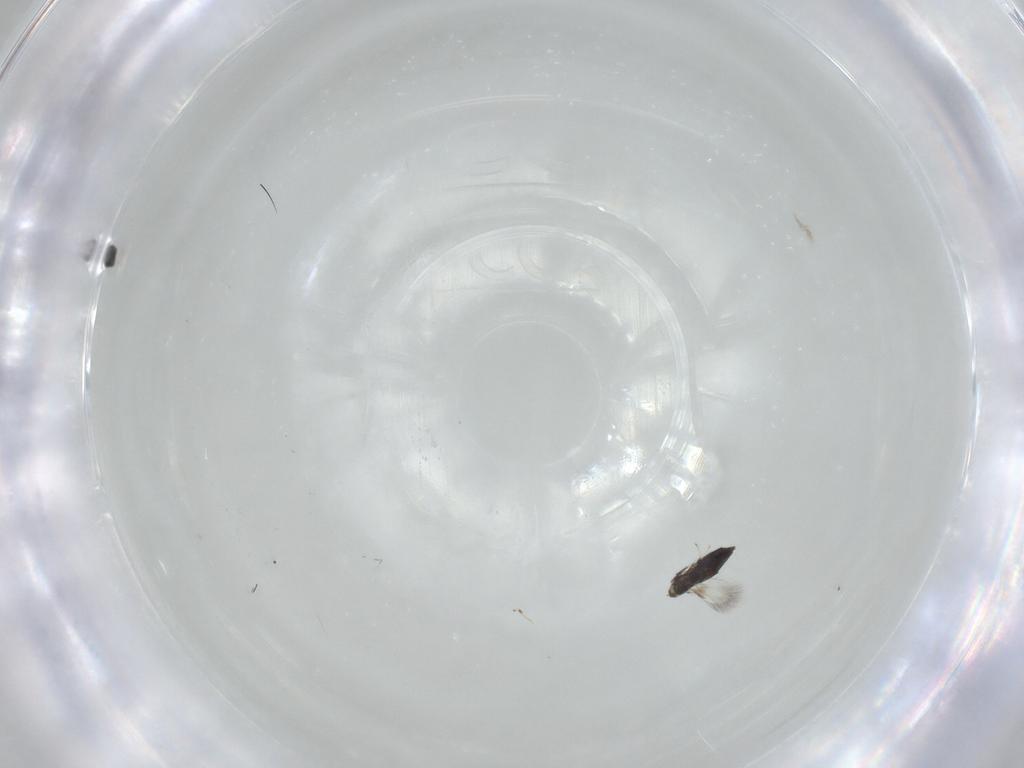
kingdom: Animalia
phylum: Arthropoda
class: Insecta
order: Hymenoptera
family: Signiphoridae
